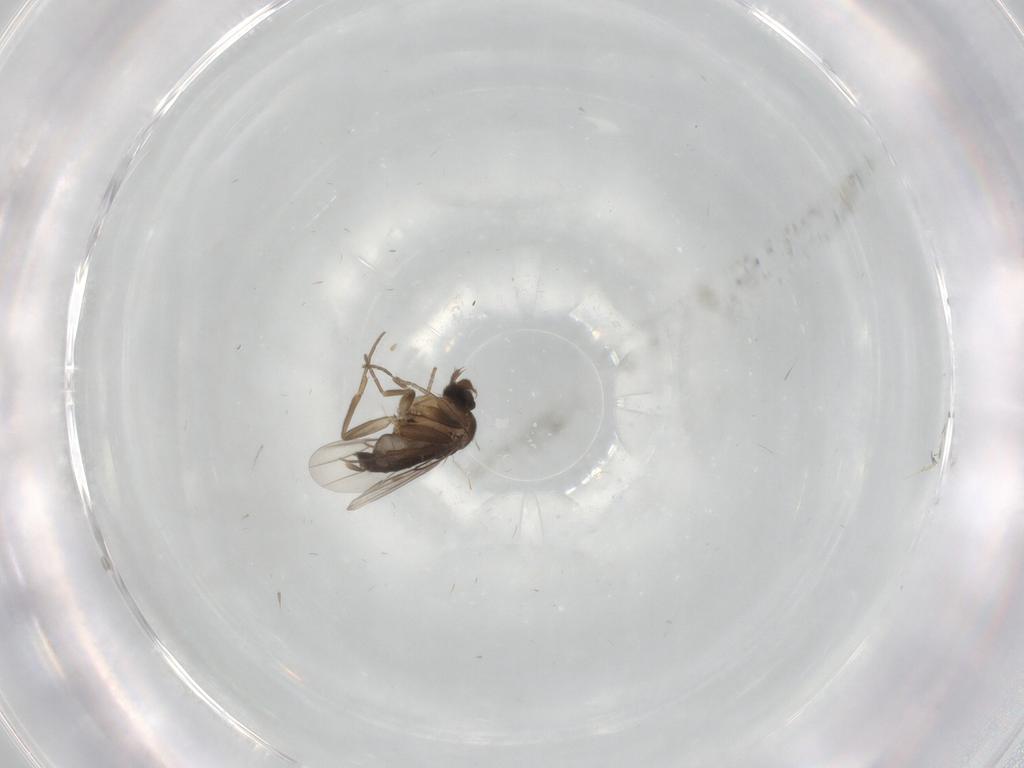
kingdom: Animalia
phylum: Arthropoda
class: Insecta
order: Diptera
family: Phoridae
